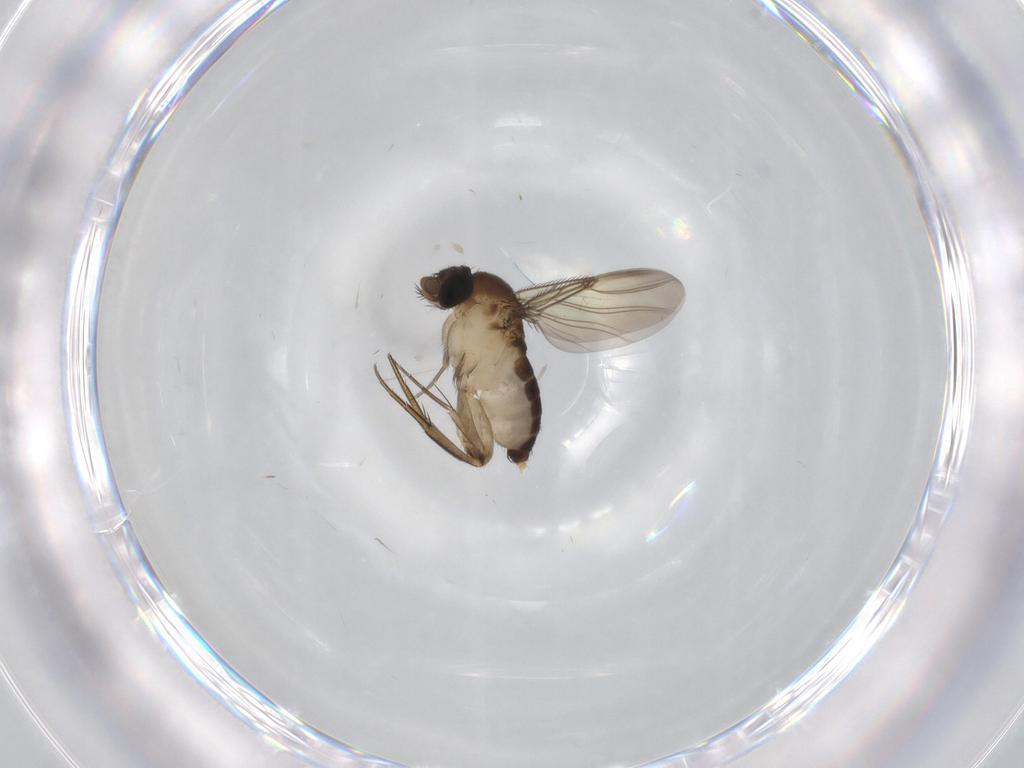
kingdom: Animalia
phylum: Arthropoda
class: Insecta
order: Diptera
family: Phoridae
